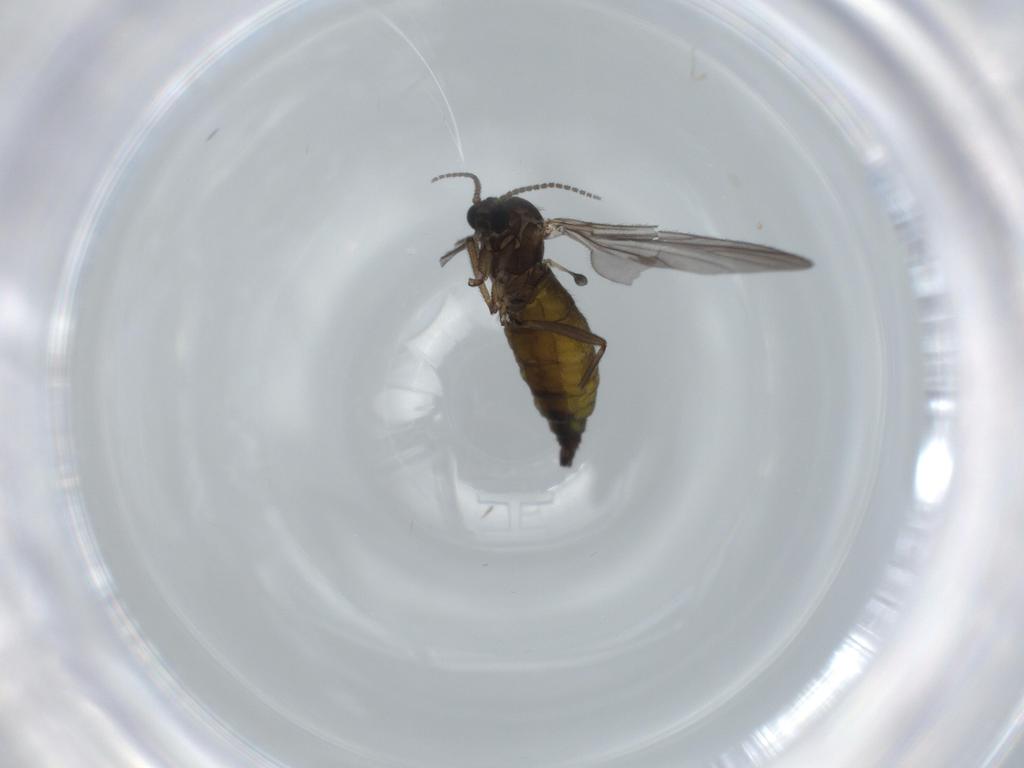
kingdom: Animalia
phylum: Arthropoda
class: Insecta
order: Diptera
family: Sciaridae
